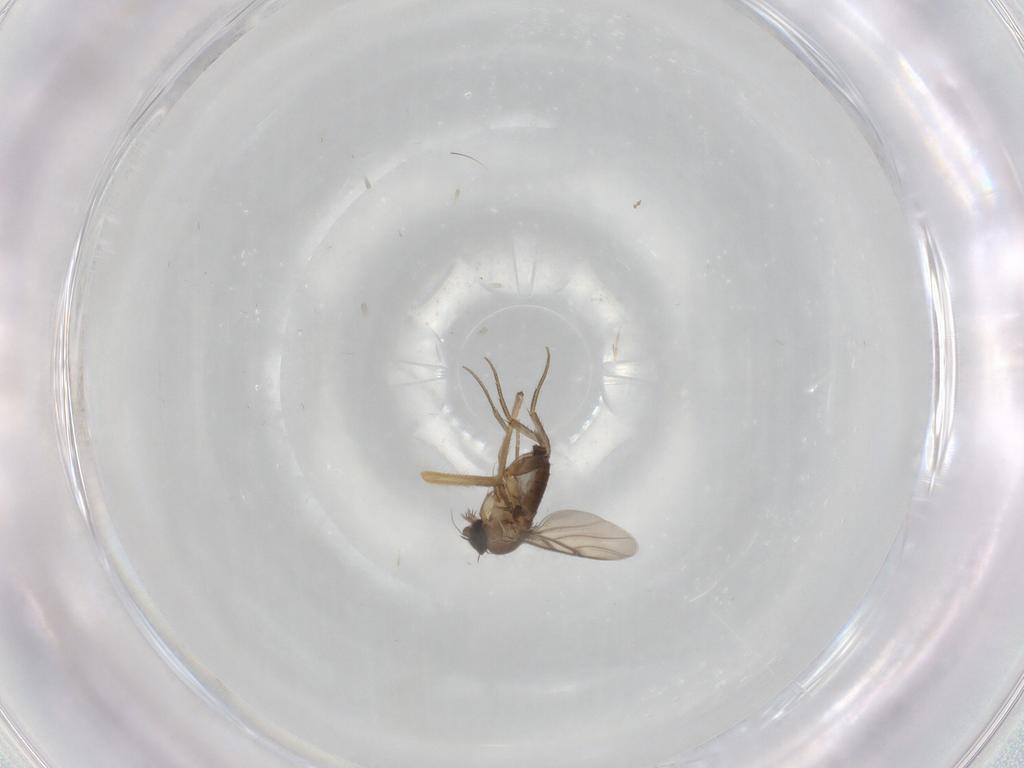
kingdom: Animalia
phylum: Arthropoda
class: Insecta
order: Diptera
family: Phoridae
